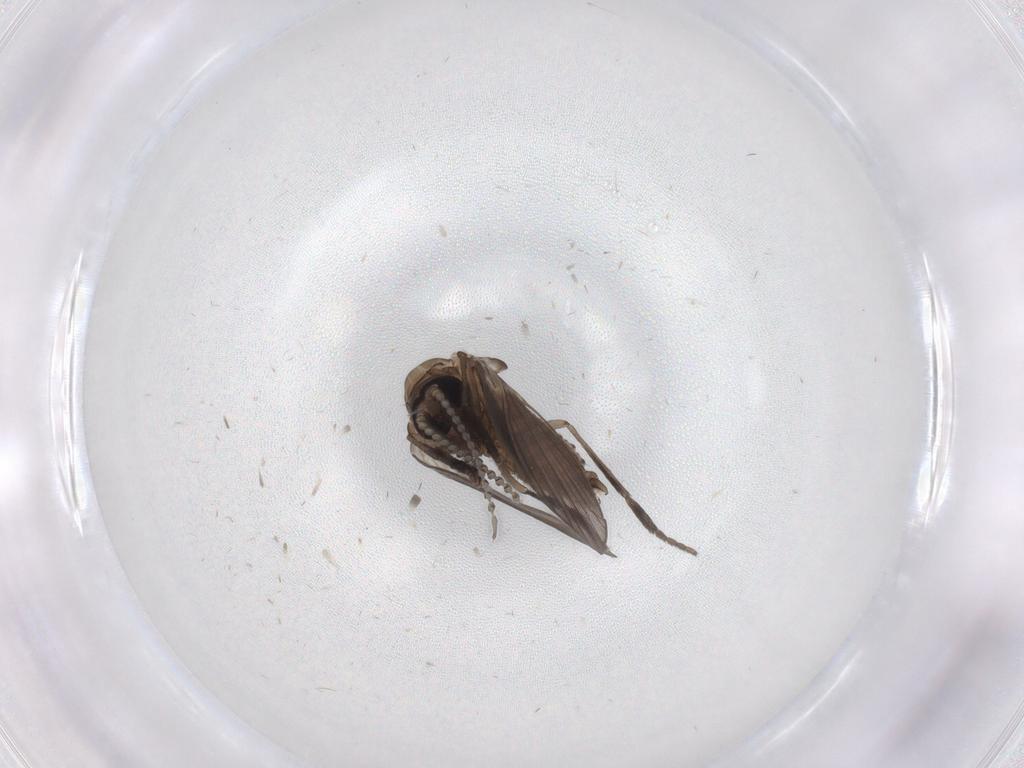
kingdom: Animalia
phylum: Arthropoda
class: Insecta
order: Diptera
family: Psychodidae
